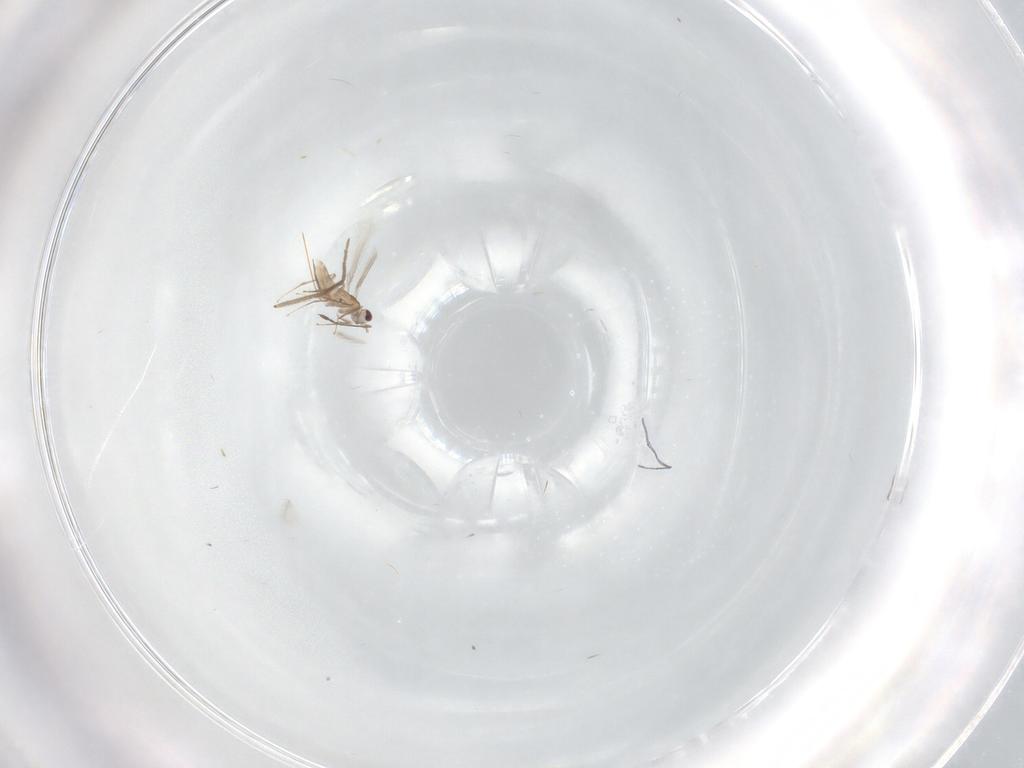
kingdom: Animalia
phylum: Arthropoda
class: Insecta
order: Hymenoptera
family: Mymaridae
